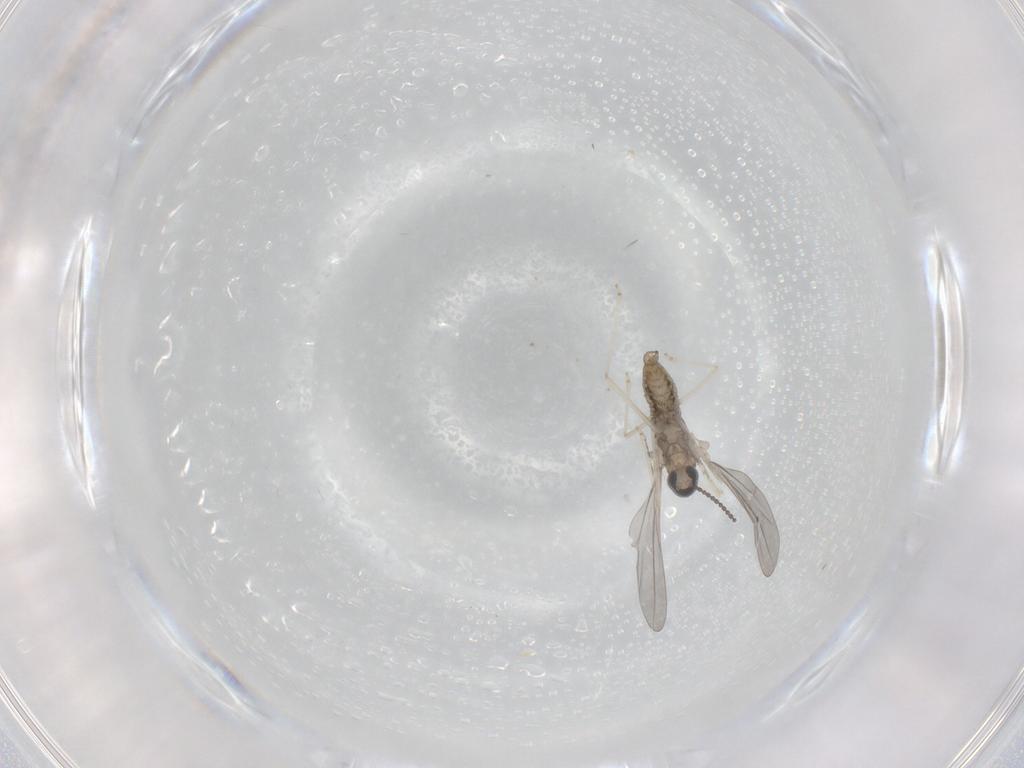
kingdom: Animalia
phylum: Arthropoda
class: Insecta
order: Diptera
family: Cecidomyiidae
